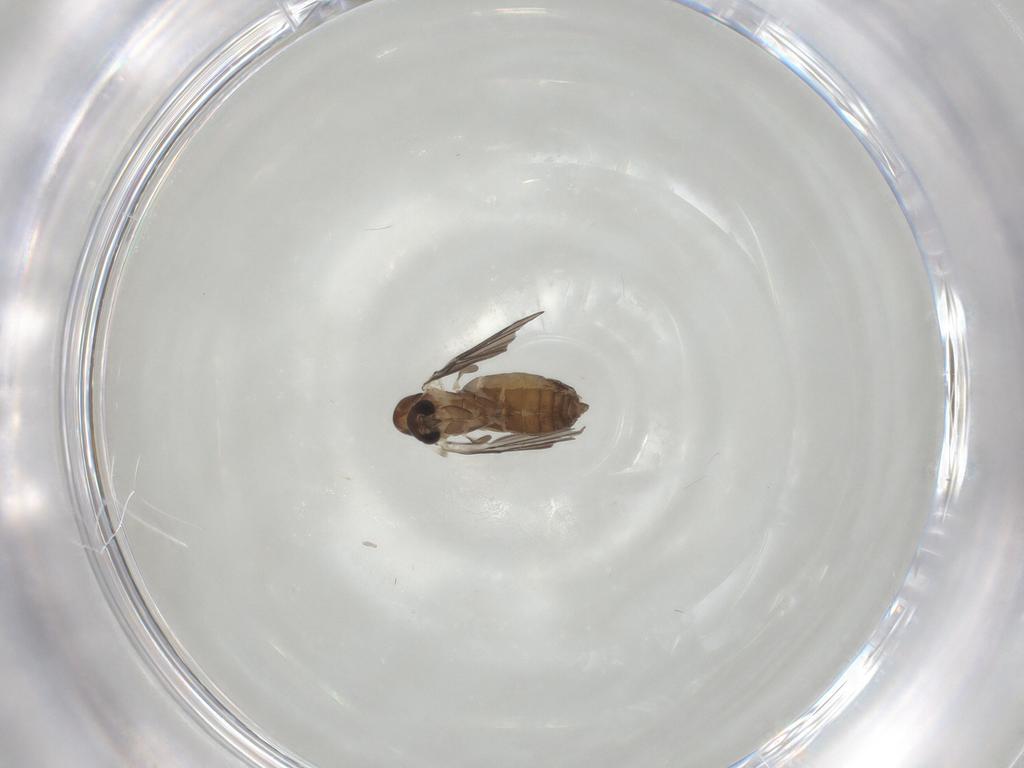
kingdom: Animalia
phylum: Arthropoda
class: Insecta
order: Diptera
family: Psychodidae
